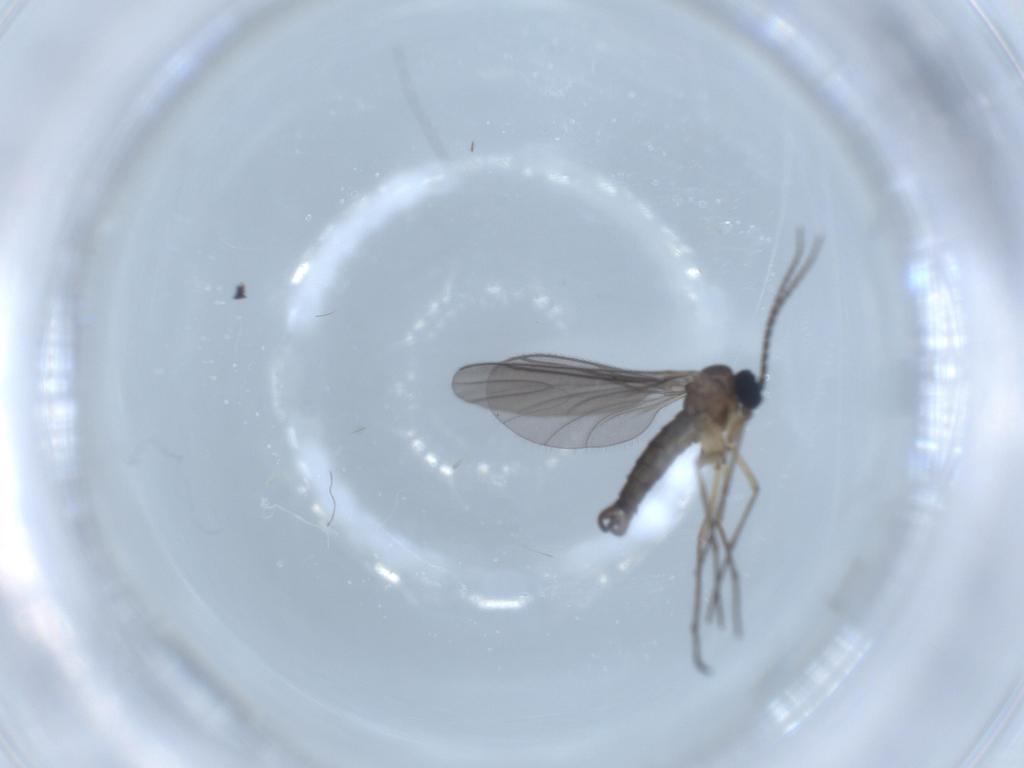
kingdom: Animalia
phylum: Arthropoda
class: Insecta
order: Diptera
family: Sciaridae
